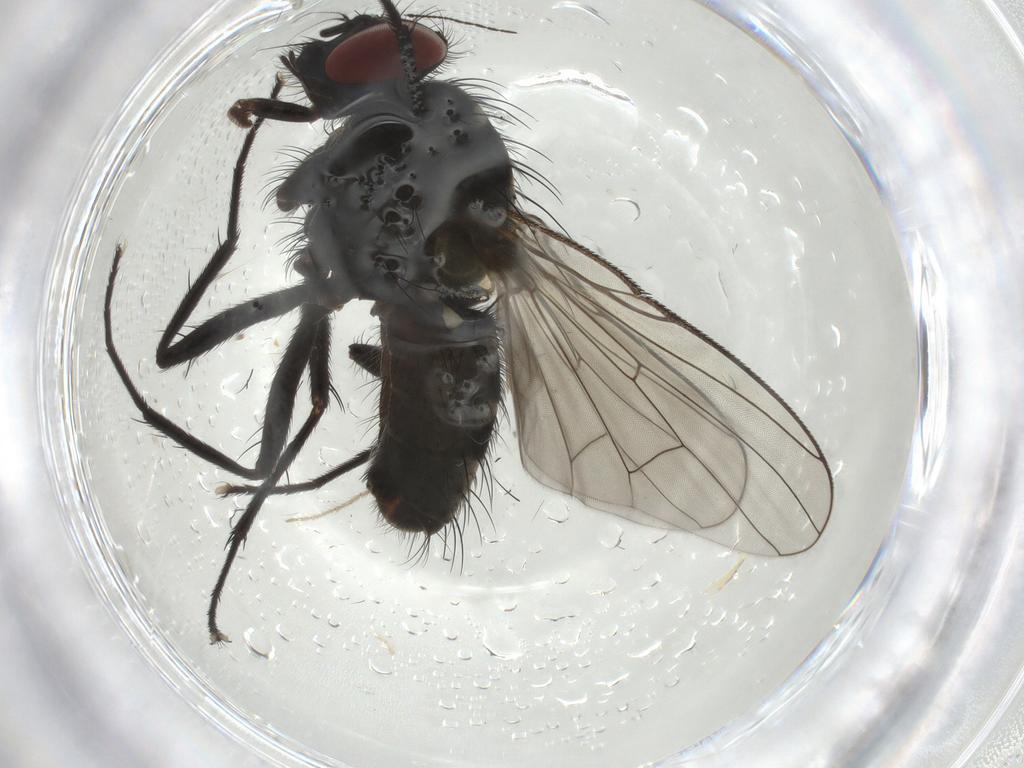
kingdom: Animalia
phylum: Arthropoda
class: Insecta
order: Diptera
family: Muscidae
